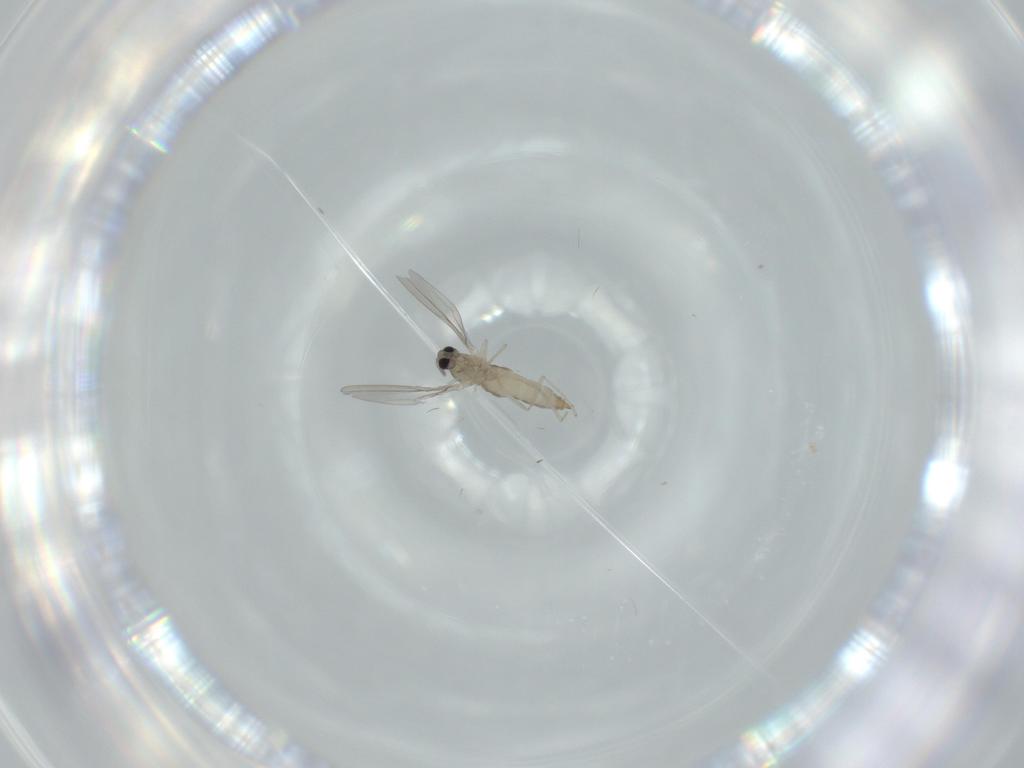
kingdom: Animalia
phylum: Arthropoda
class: Insecta
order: Diptera
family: Cecidomyiidae
